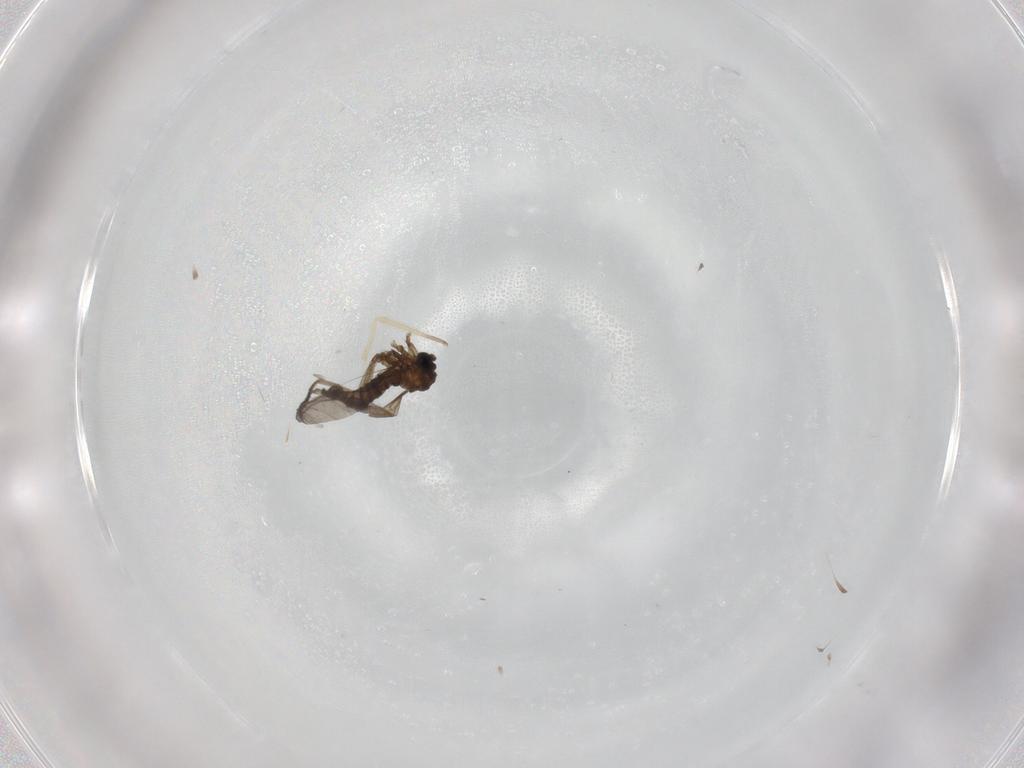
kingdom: Animalia
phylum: Arthropoda
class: Insecta
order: Diptera
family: Sciaridae
